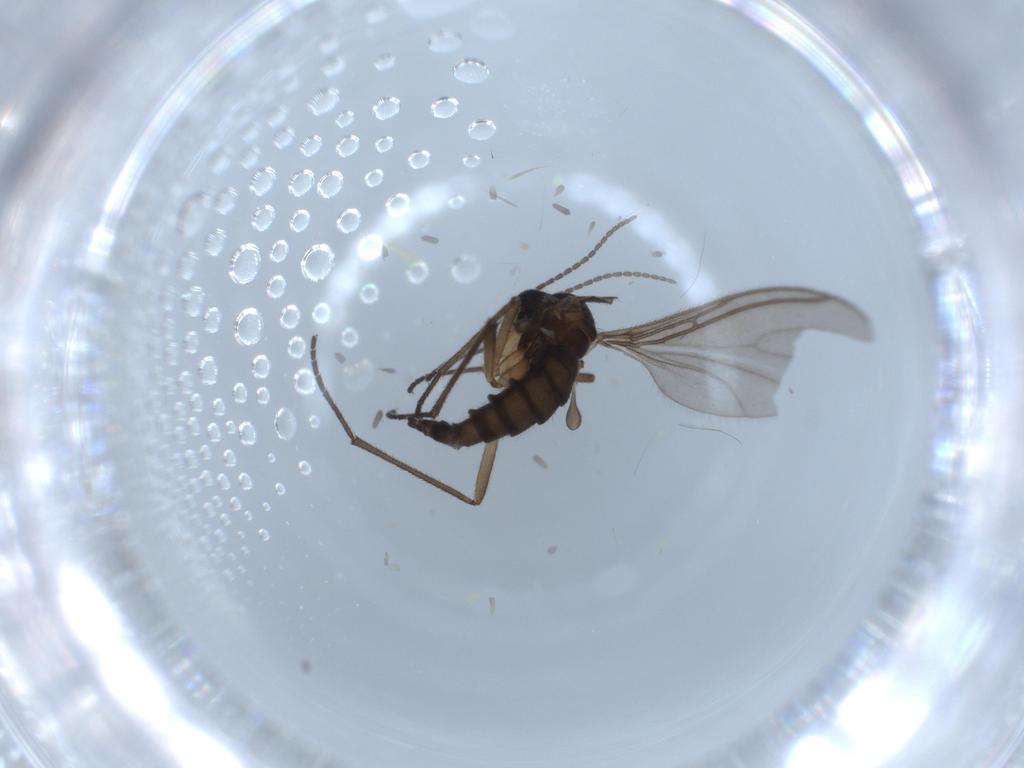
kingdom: Animalia
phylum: Arthropoda
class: Insecta
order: Diptera
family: Sciaridae
